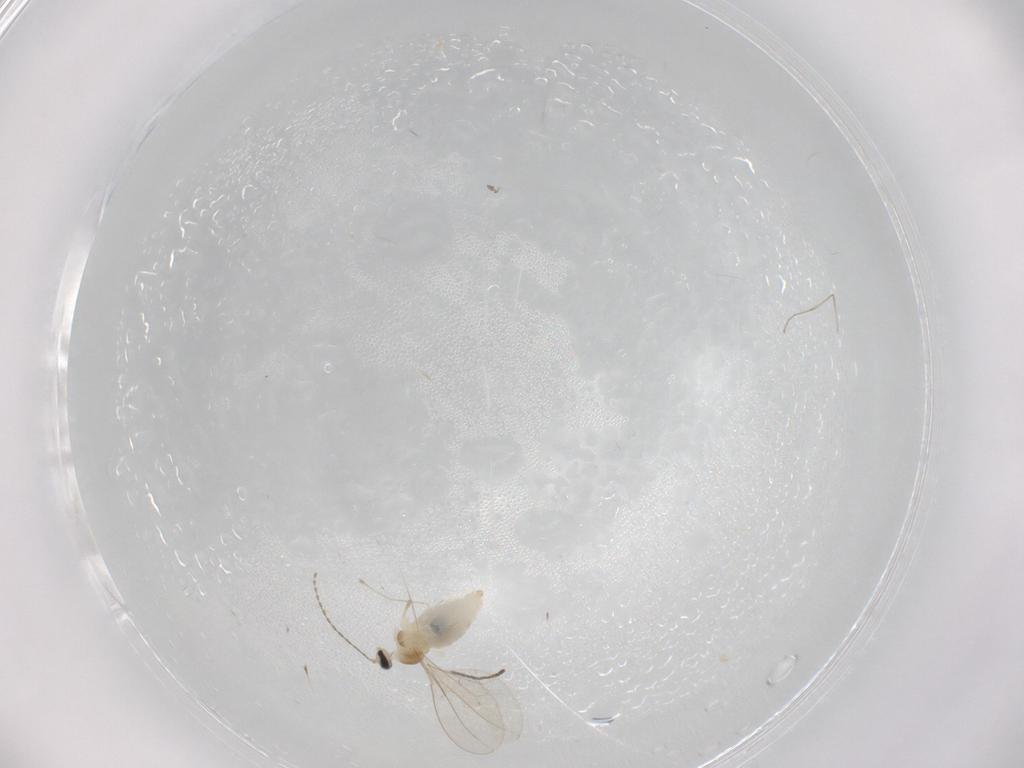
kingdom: Animalia
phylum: Arthropoda
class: Insecta
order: Diptera
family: Cecidomyiidae
